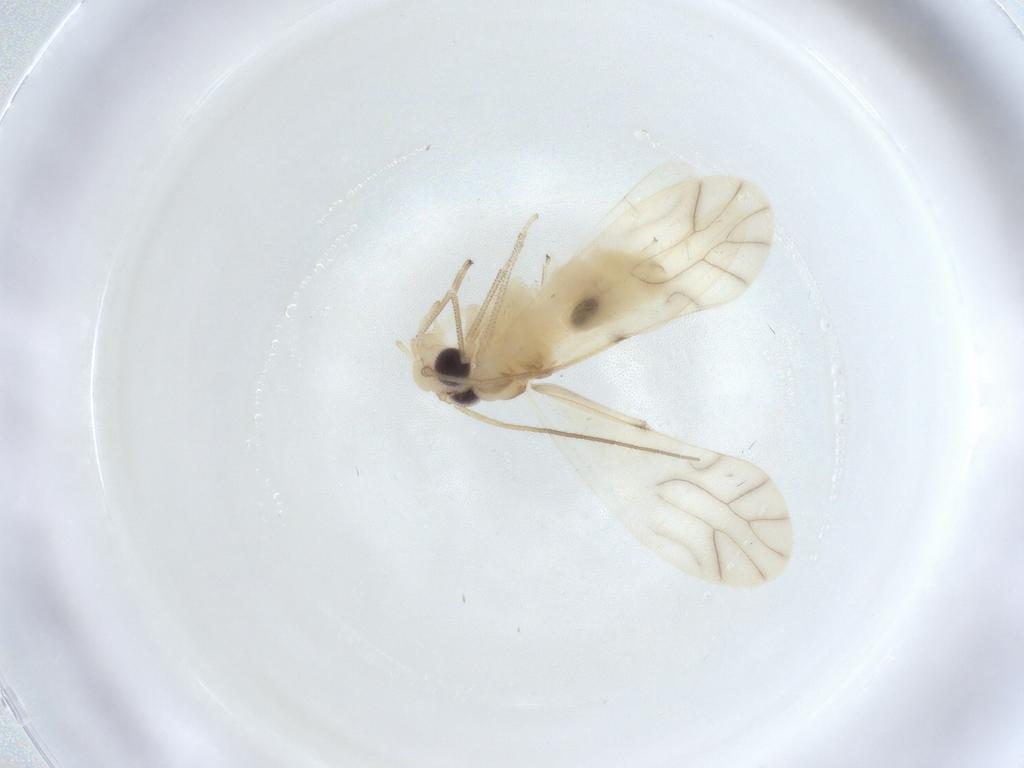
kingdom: Animalia
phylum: Arthropoda
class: Insecta
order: Psocodea
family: Caeciliusidae
